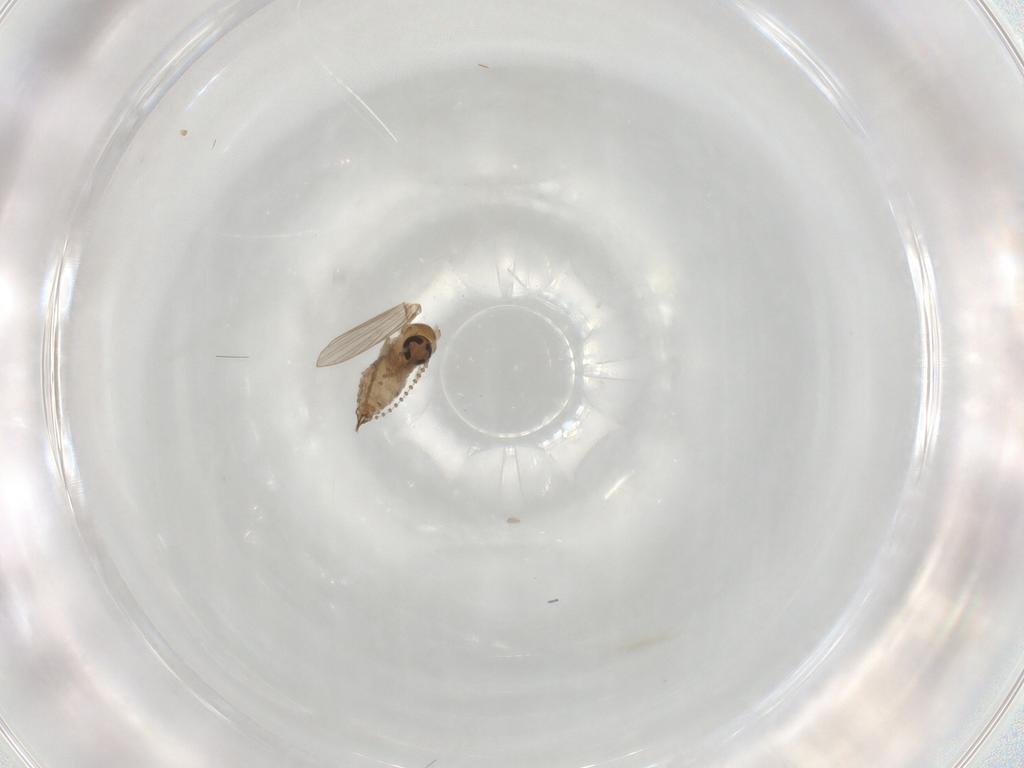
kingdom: Animalia
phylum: Arthropoda
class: Insecta
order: Diptera
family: Psychodidae
